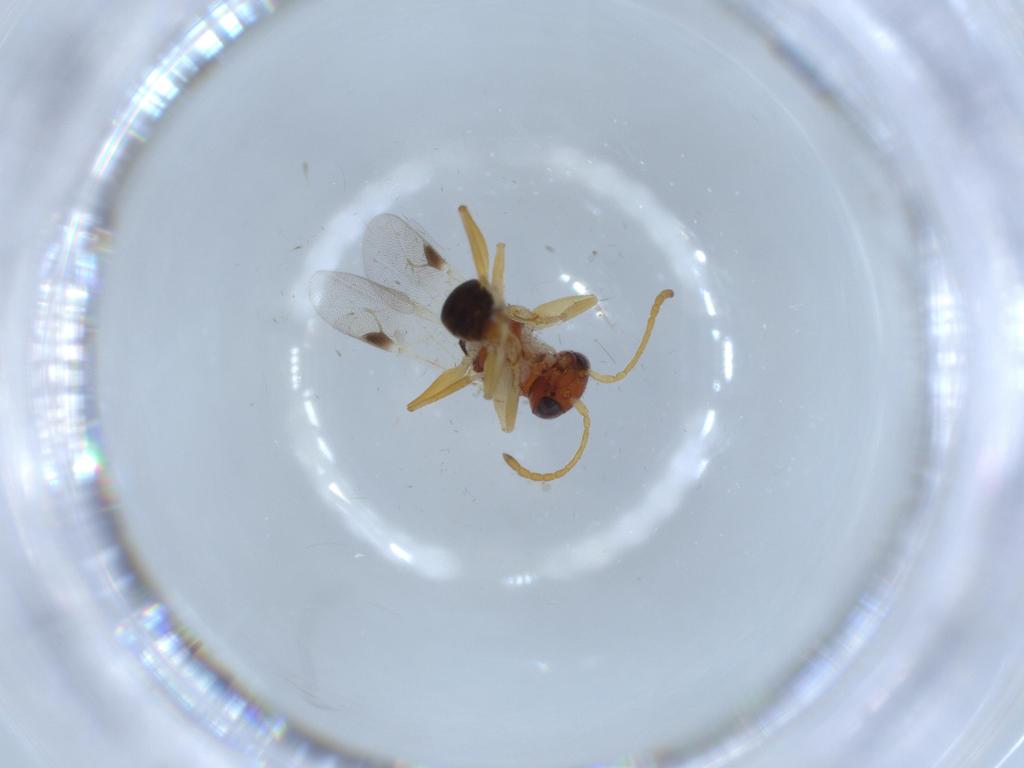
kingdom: Animalia
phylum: Arthropoda
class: Insecta
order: Hymenoptera
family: Dryinidae
